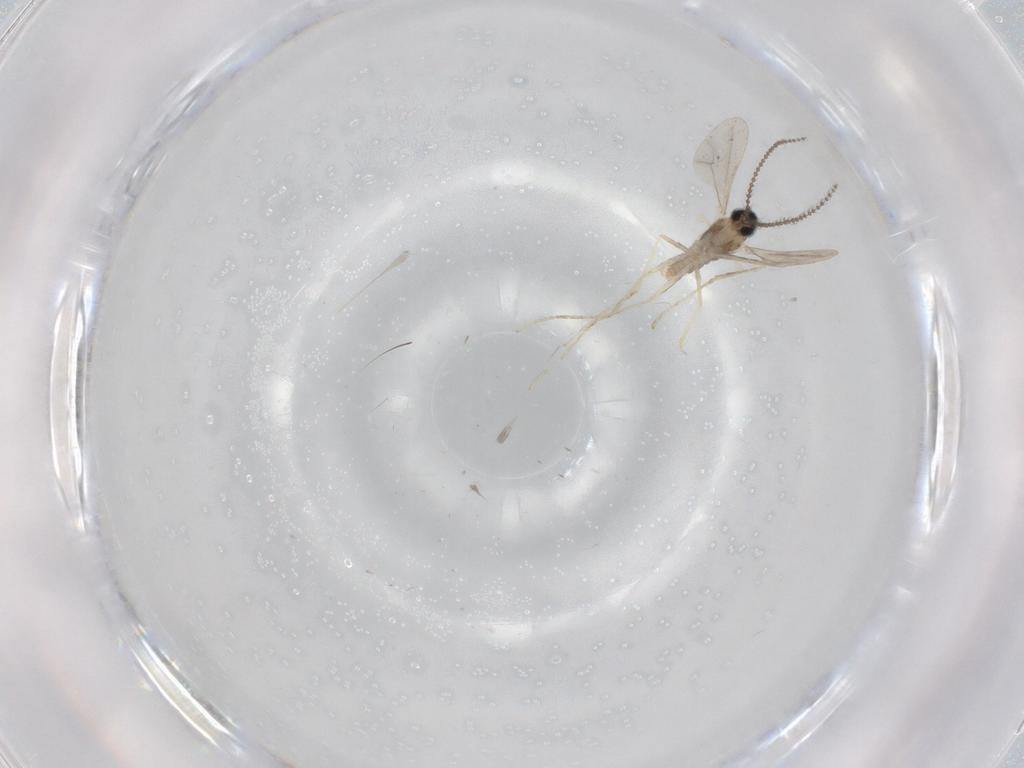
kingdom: Animalia
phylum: Arthropoda
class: Insecta
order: Diptera
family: Cecidomyiidae
